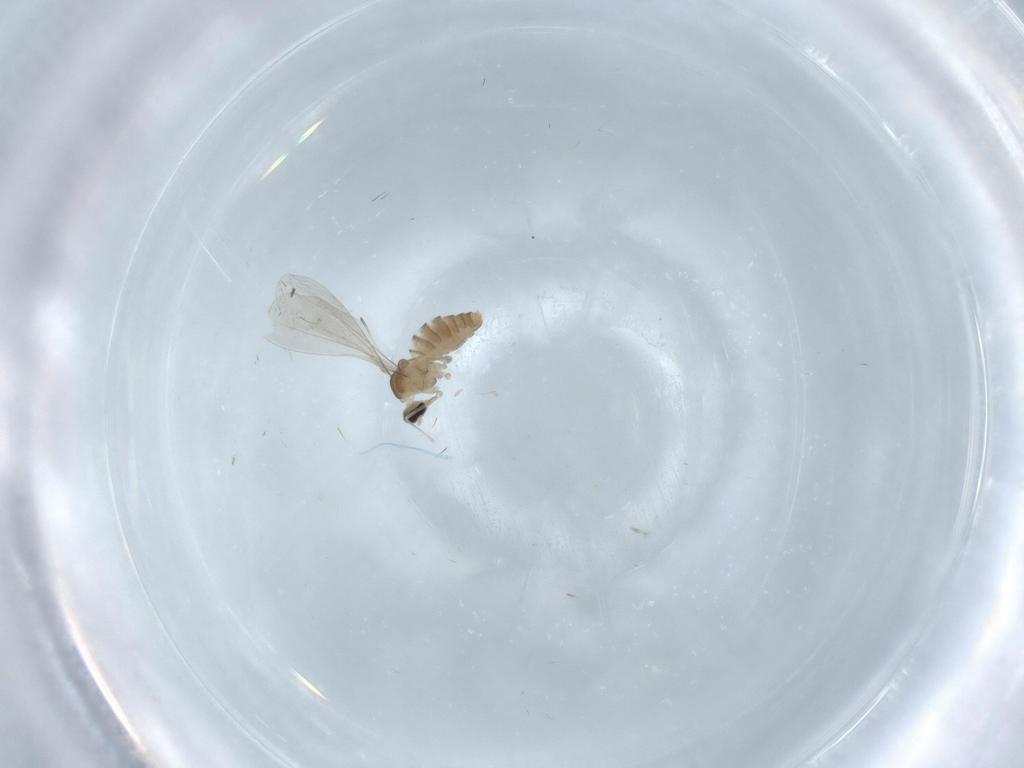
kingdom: Animalia
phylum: Arthropoda
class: Insecta
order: Diptera
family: Cecidomyiidae
